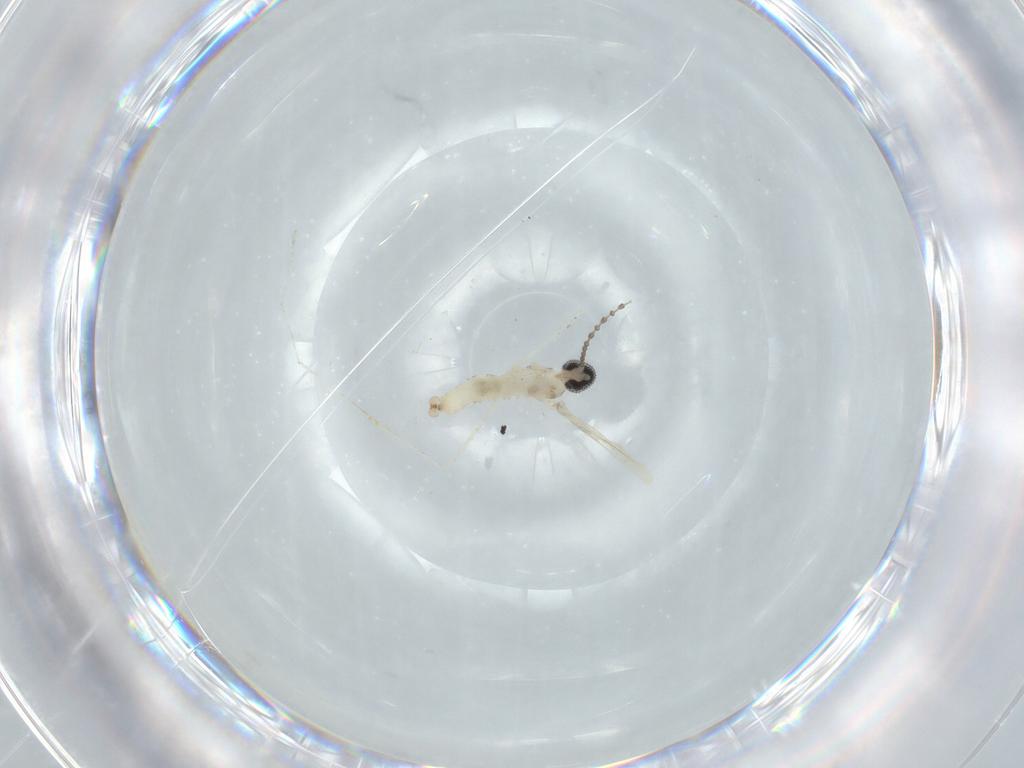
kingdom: Animalia
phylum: Arthropoda
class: Insecta
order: Diptera
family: Cecidomyiidae
